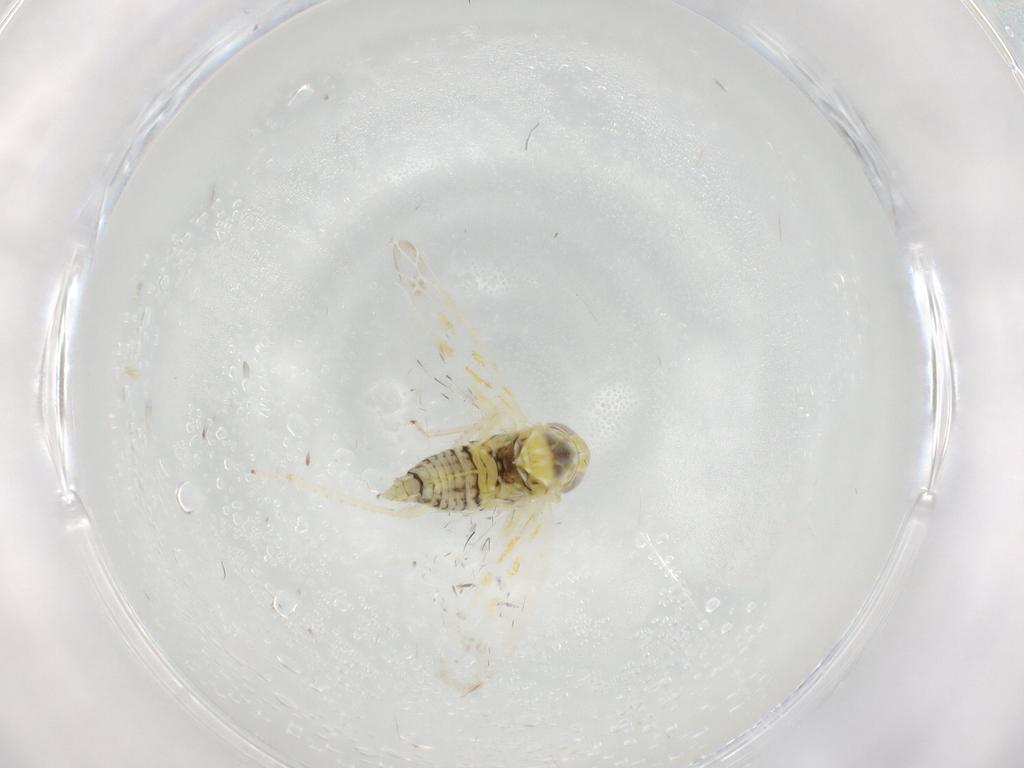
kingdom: Animalia
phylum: Arthropoda
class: Insecta
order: Hemiptera
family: Cicadellidae
